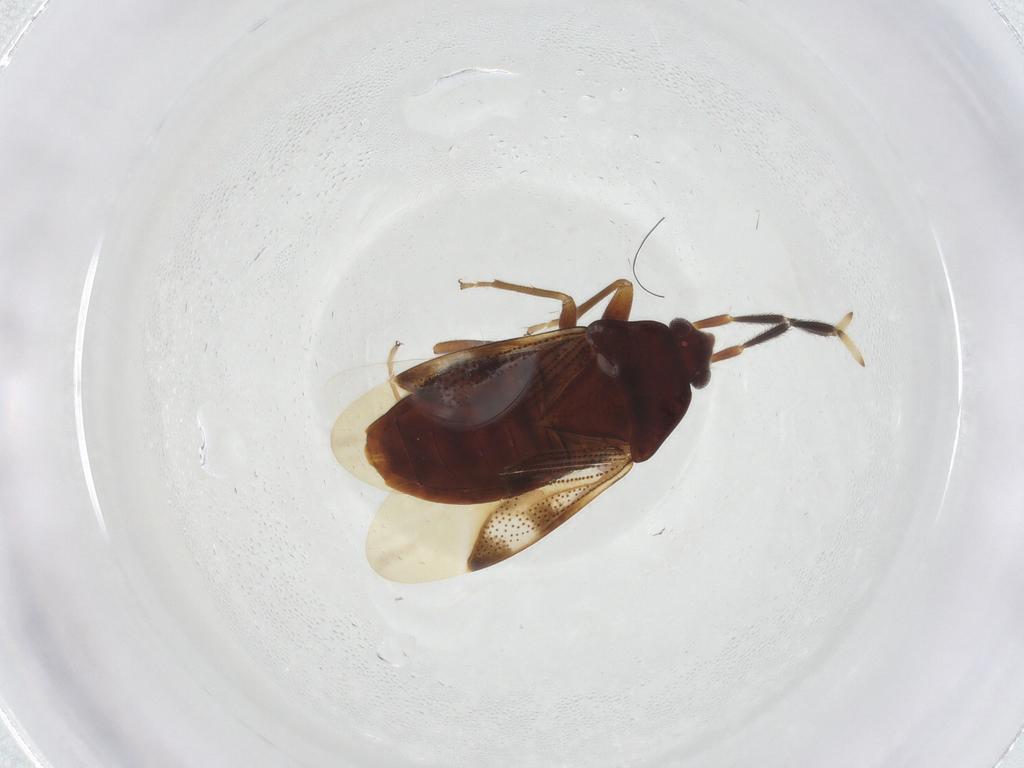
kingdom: Animalia
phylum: Arthropoda
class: Insecta
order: Hemiptera
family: Rhyparochromidae
